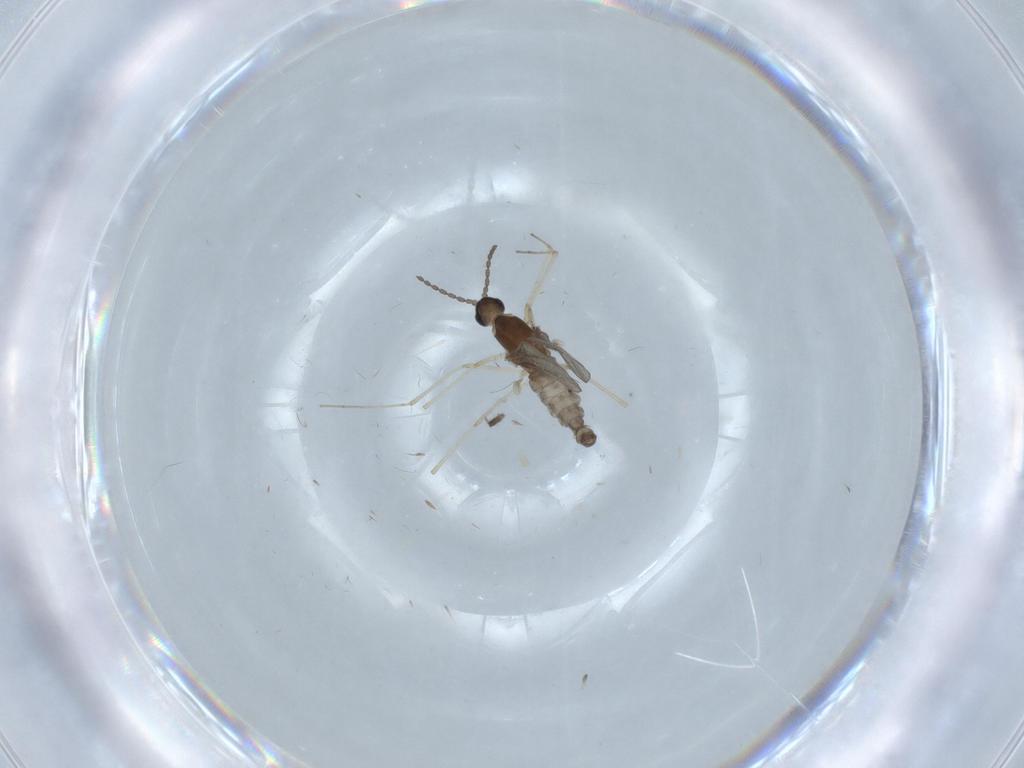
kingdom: Animalia
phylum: Arthropoda
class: Insecta
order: Diptera
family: Cecidomyiidae
